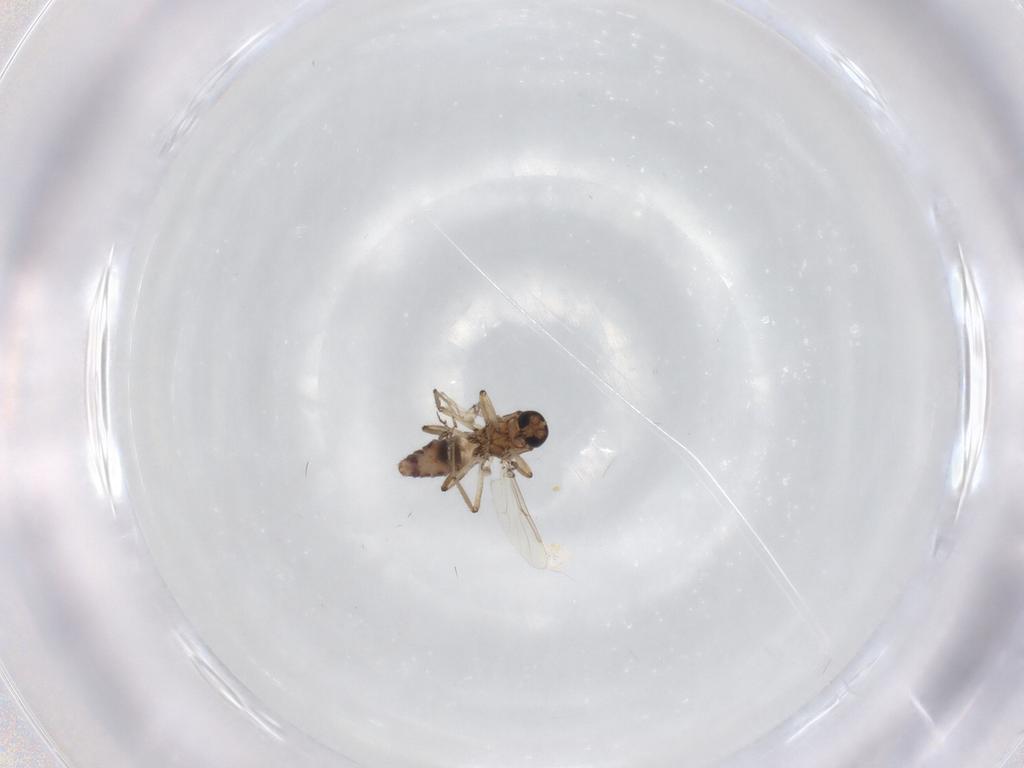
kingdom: Animalia
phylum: Arthropoda
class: Insecta
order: Diptera
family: Ceratopogonidae
